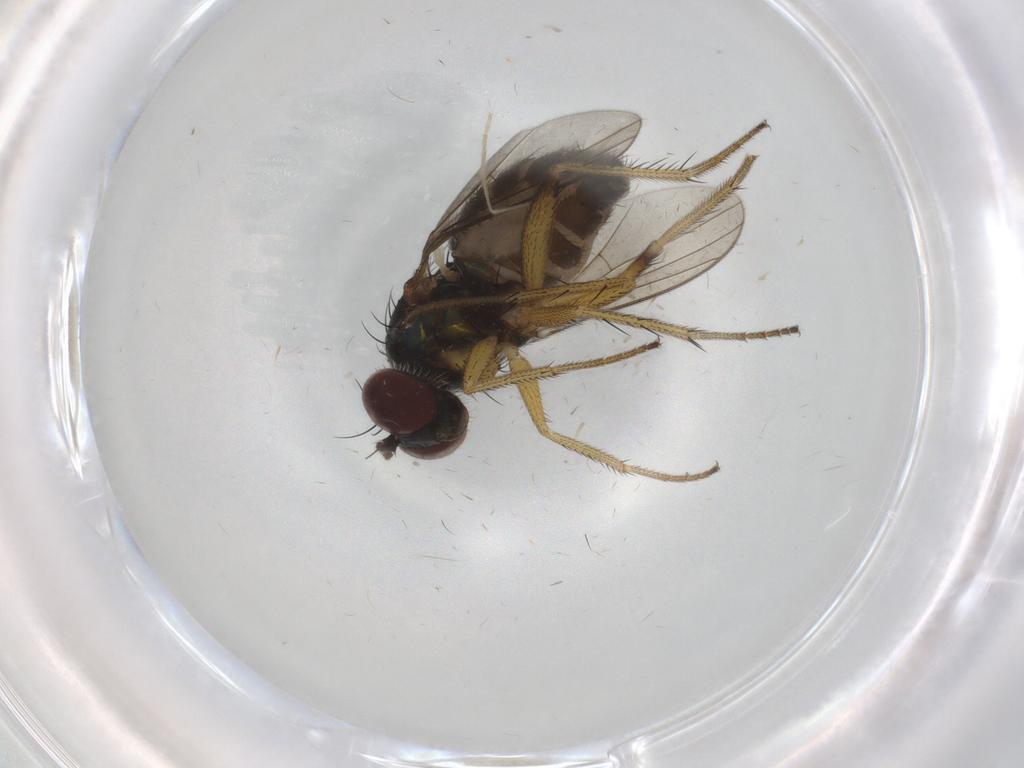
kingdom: Animalia
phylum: Arthropoda
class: Insecta
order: Diptera
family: Dolichopodidae
